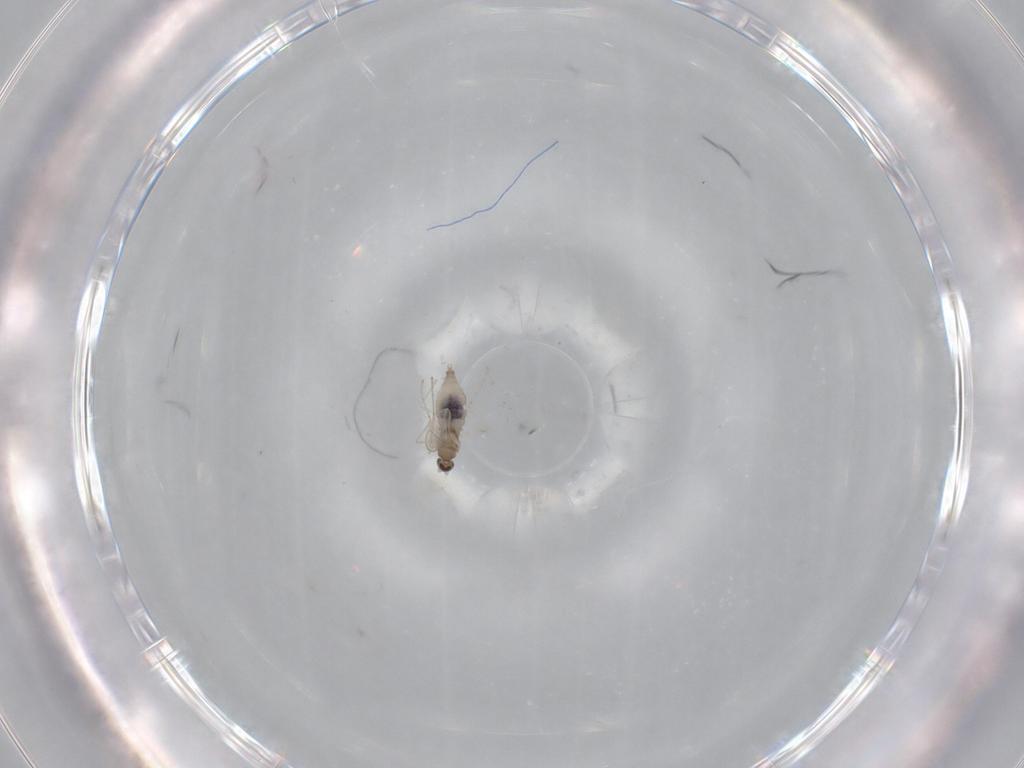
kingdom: Animalia
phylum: Arthropoda
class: Insecta
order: Diptera
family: Cecidomyiidae
